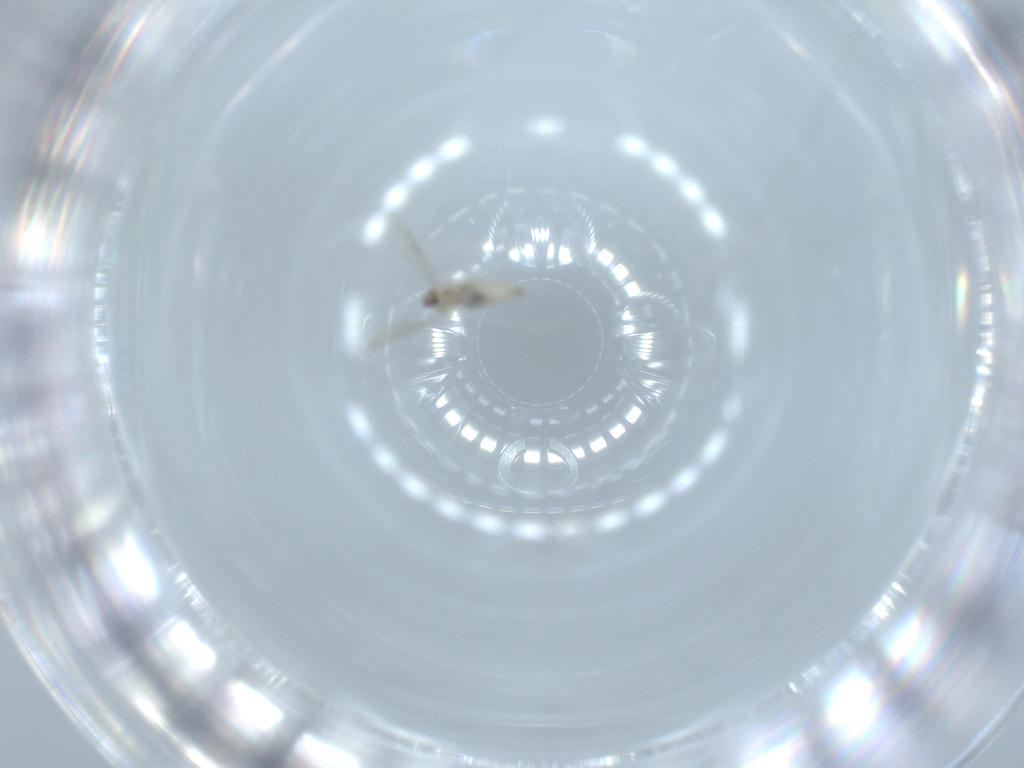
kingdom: Animalia
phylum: Arthropoda
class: Insecta
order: Diptera
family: Cecidomyiidae
